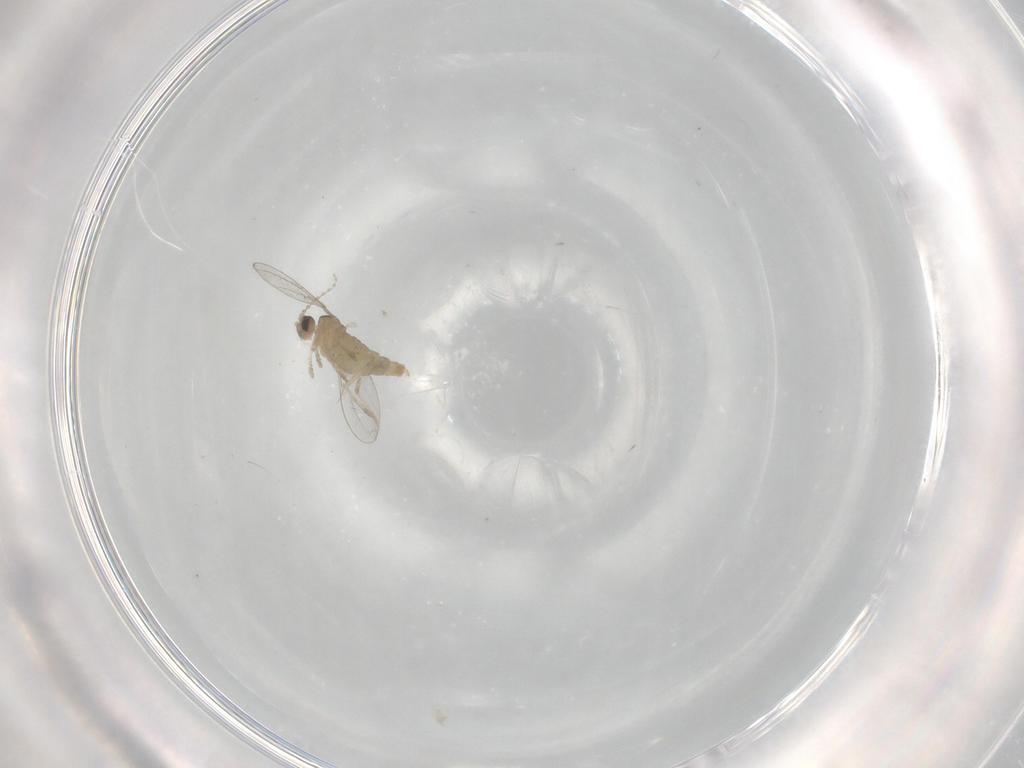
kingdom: Animalia
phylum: Arthropoda
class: Insecta
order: Diptera
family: Cecidomyiidae
